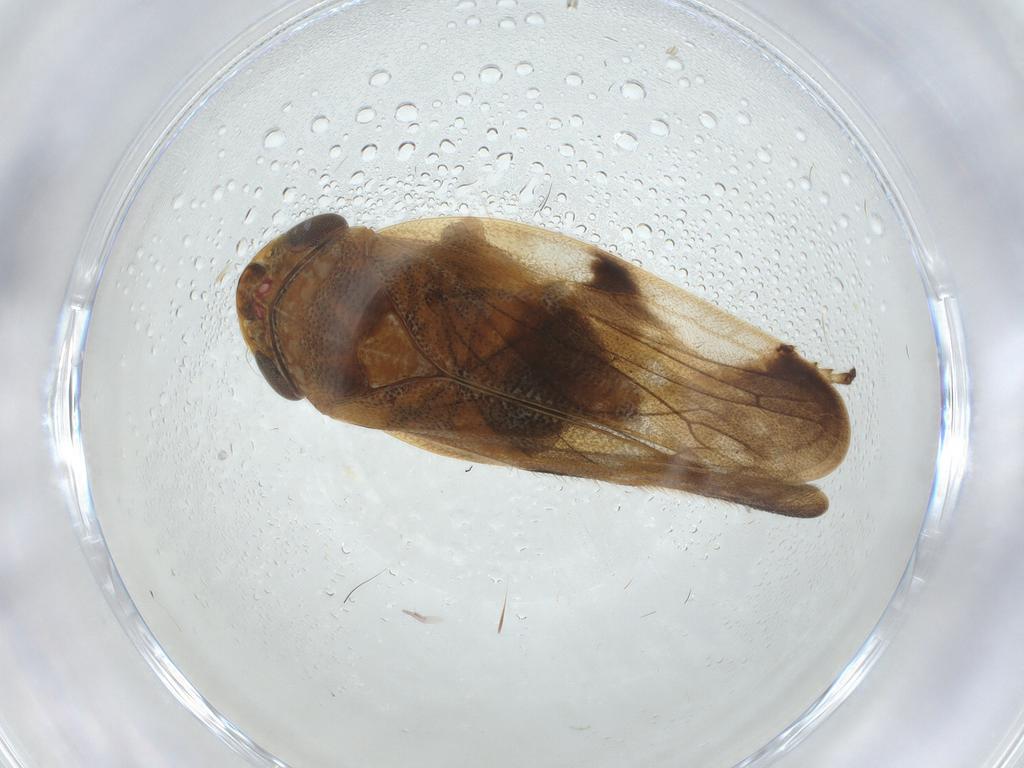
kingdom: Animalia
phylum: Arthropoda
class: Insecta
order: Hemiptera
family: Aphrophoridae
